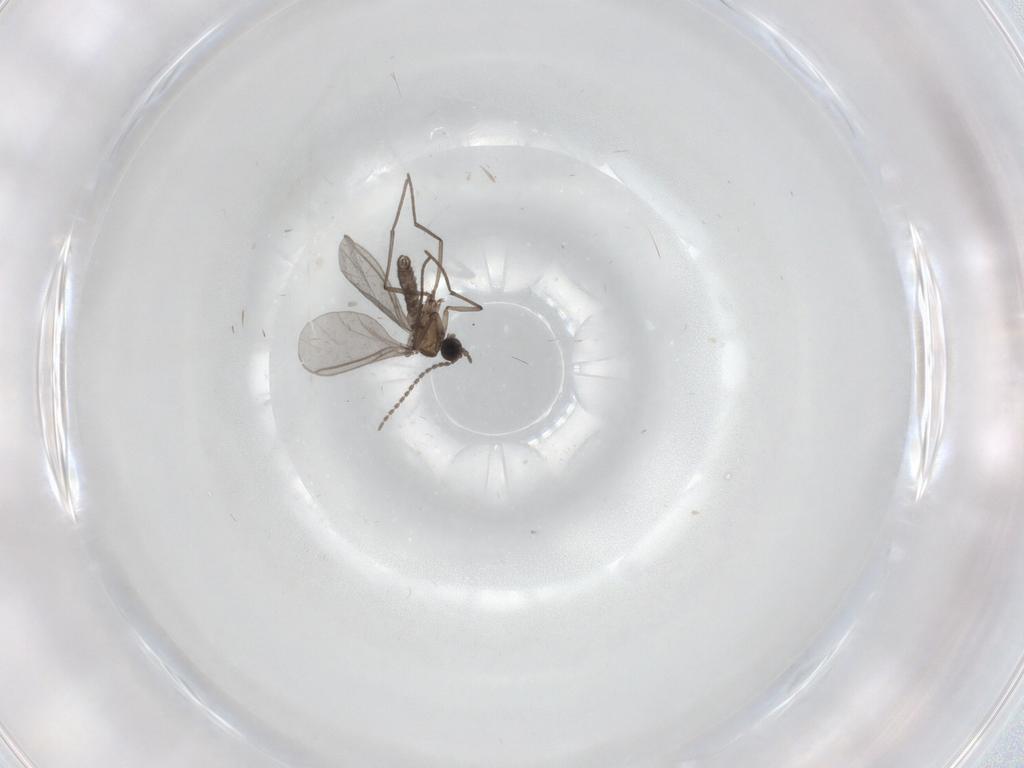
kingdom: Animalia
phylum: Arthropoda
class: Insecta
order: Diptera
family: Sciaridae
